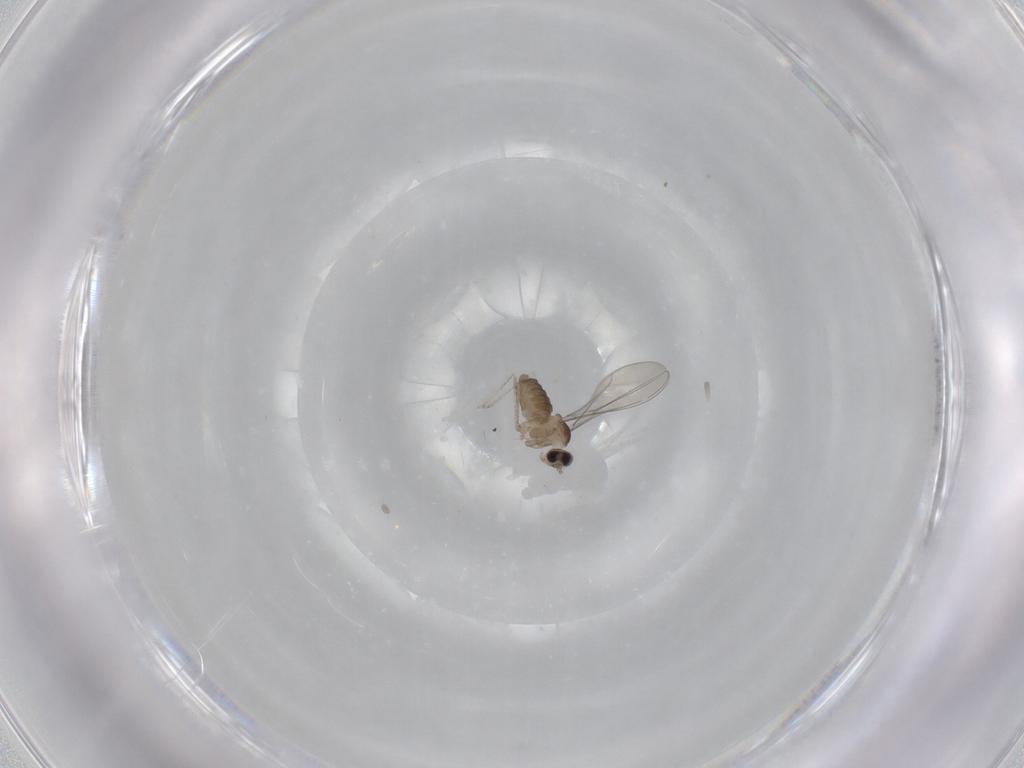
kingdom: Animalia
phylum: Arthropoda
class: Insecta
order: Diptera
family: Cecidomyiidae
